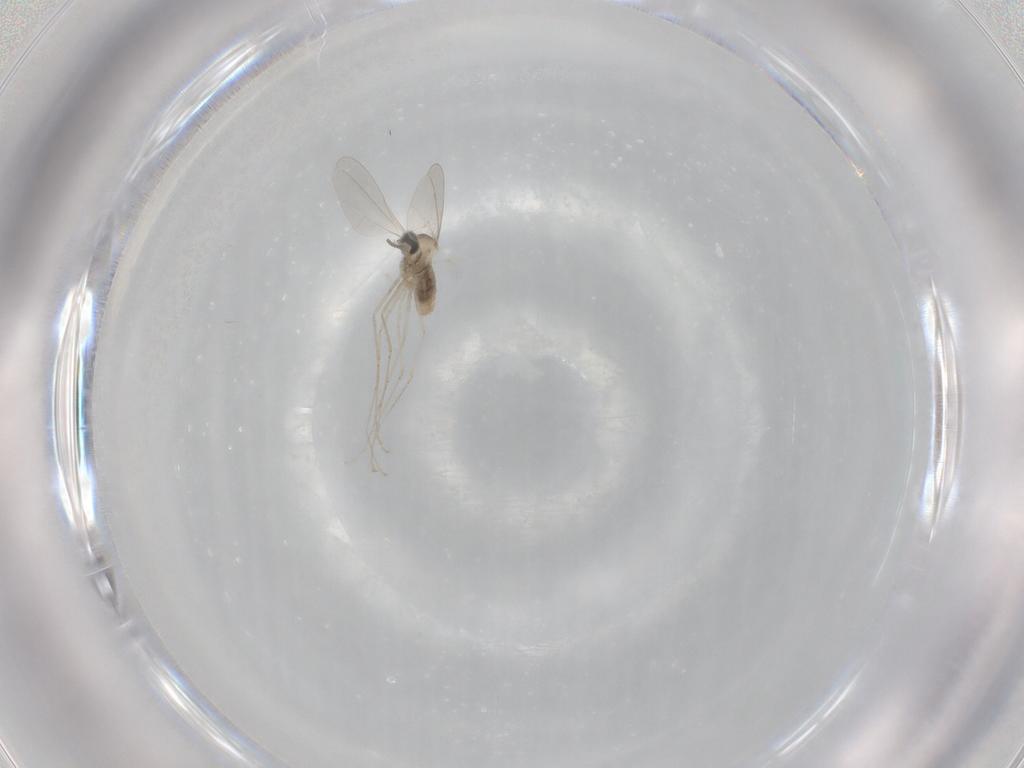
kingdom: Animalia
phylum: Arthropoda
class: Insecta
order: Diptera
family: Cecidomyiidae
